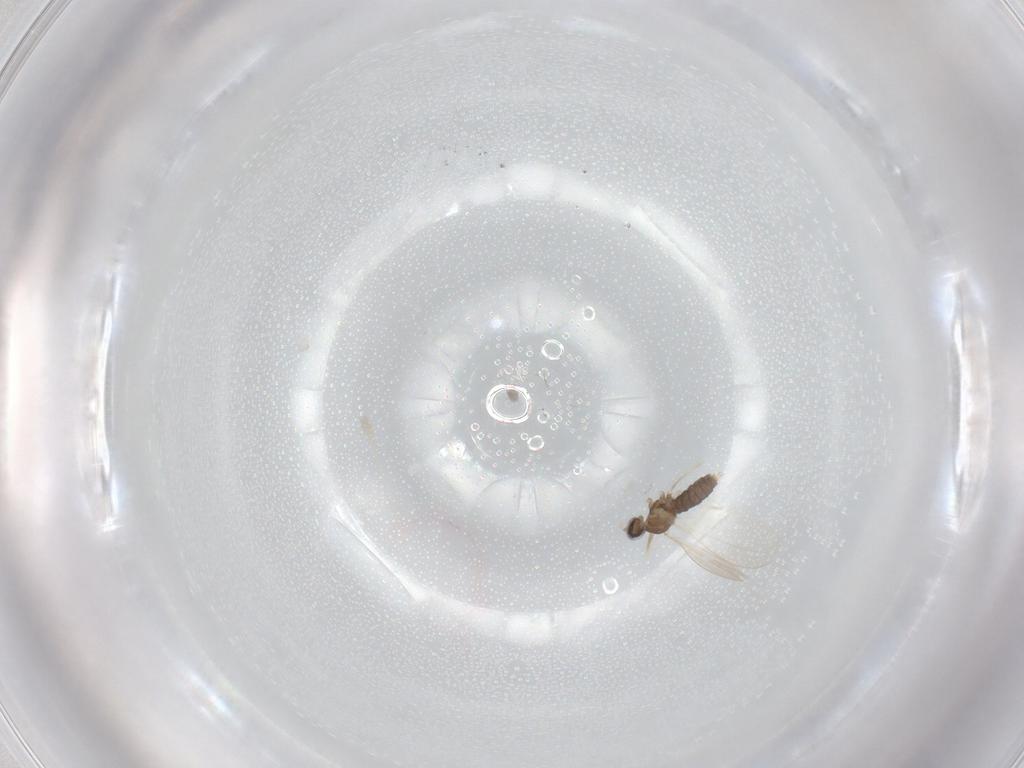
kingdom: Animalia
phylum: Arthropoda
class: Insecta
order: Diptera
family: Cecidomyiidae
